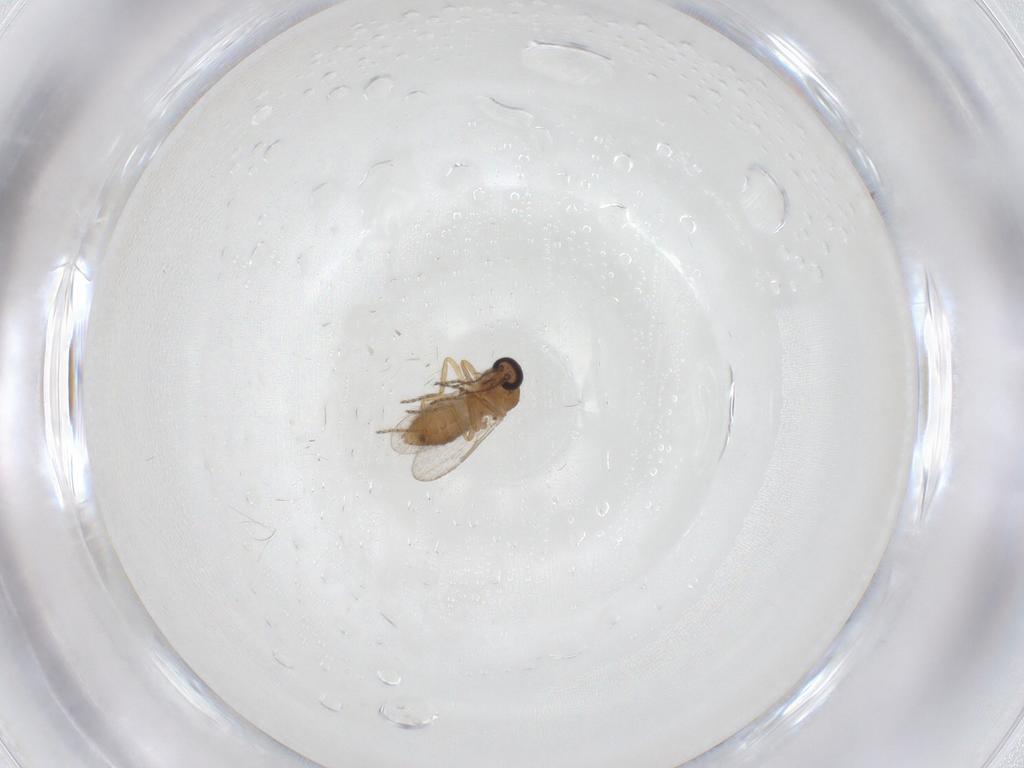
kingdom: Animalia
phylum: Arthropoda
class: Insecta
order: Diptera
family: Ceratopogonidae
